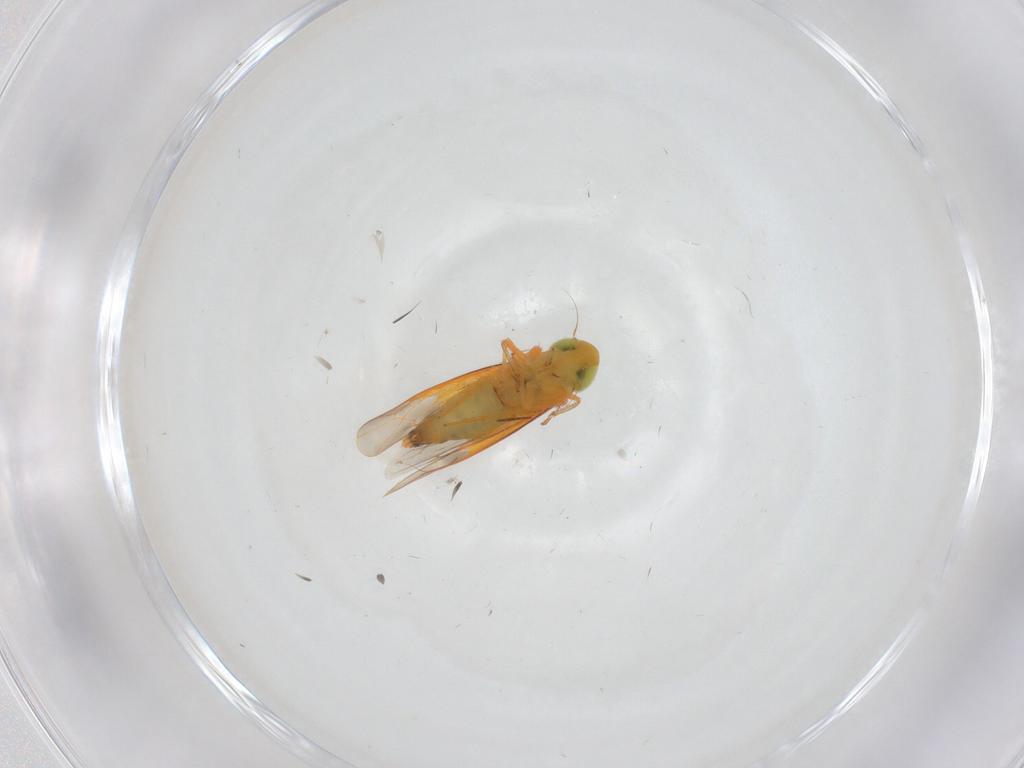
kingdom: Animalia
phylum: Arthropoda
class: Insecta
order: Hemiptera
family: Cicadellidae
